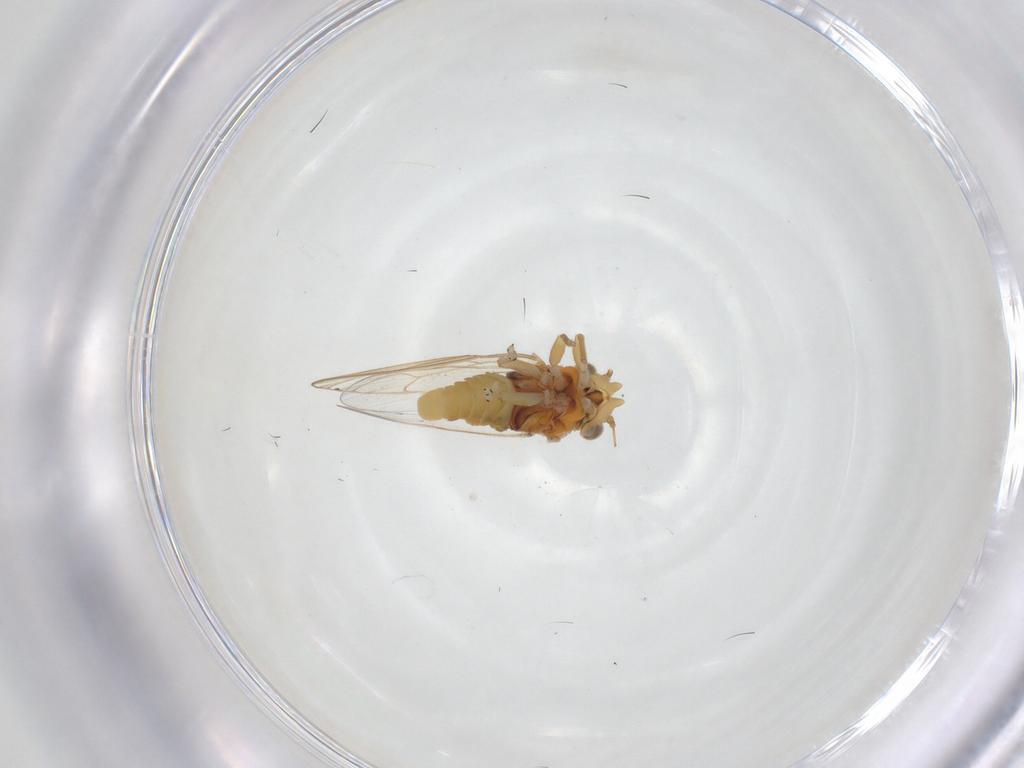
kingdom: Animalia
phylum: Arthropoda
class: Insecta
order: Hemiptera
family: Cicadellidae
